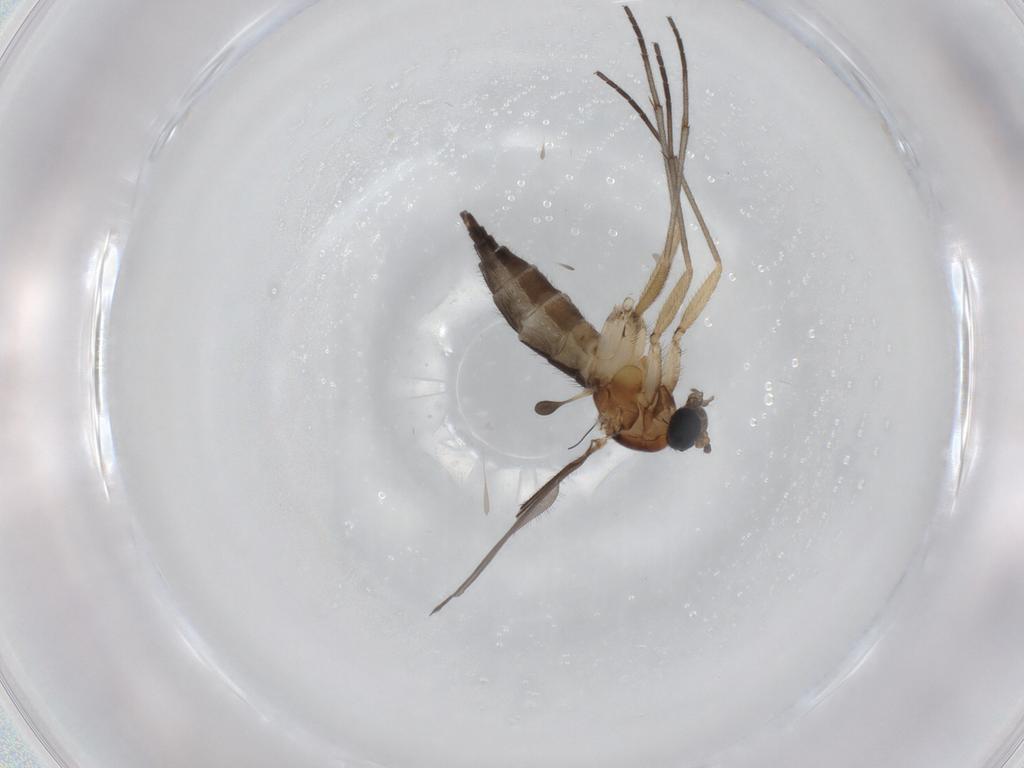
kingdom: Animalia
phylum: Arthropoda
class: Insecta
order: Diptera
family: Sciaridae
